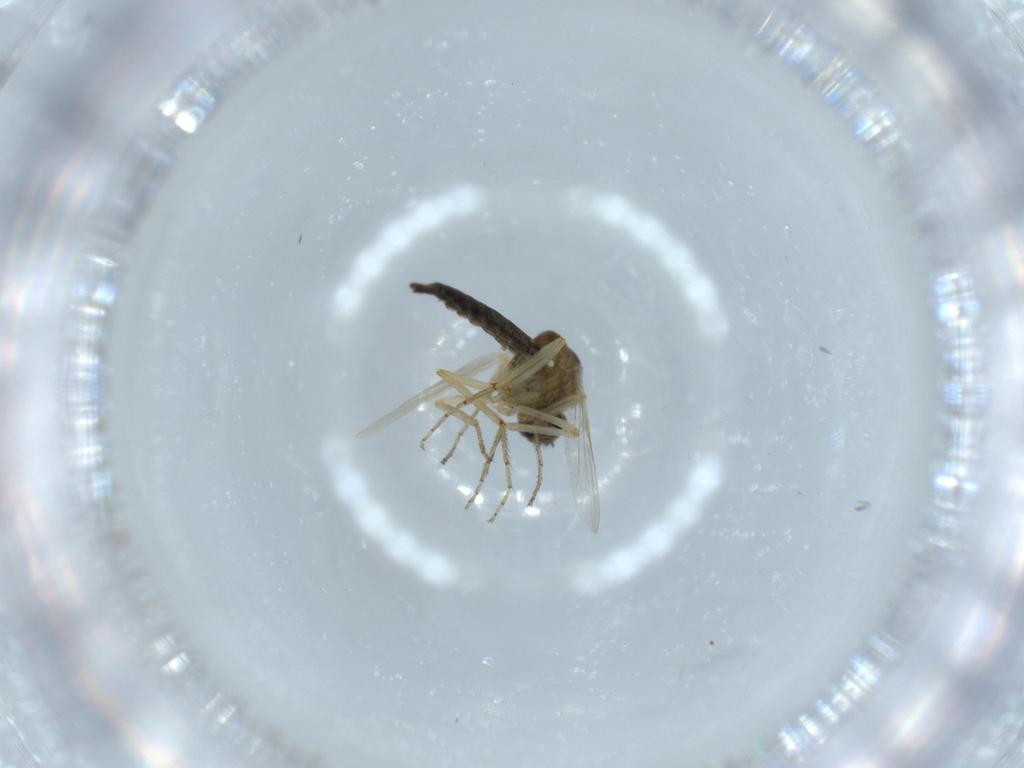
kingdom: Animalia
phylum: Arthropoda
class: Insecta
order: Diptera
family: Ceratopogonidae
